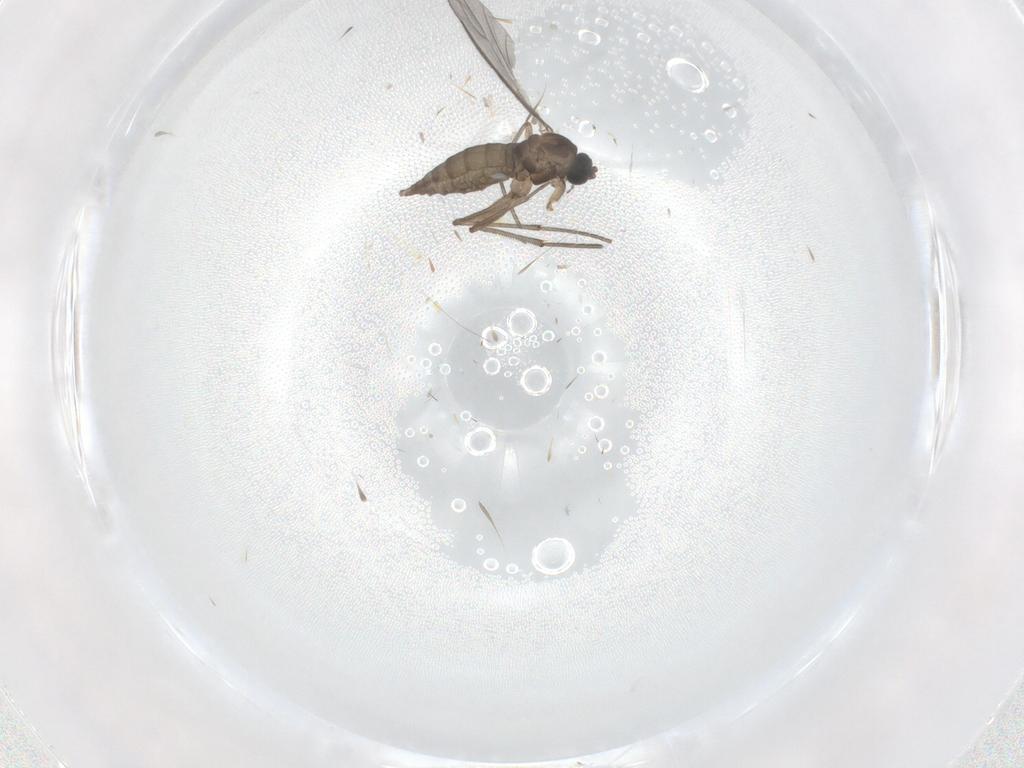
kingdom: Animalia
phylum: Arthropoda
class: Insecta
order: Diptera
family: Sciaridae
